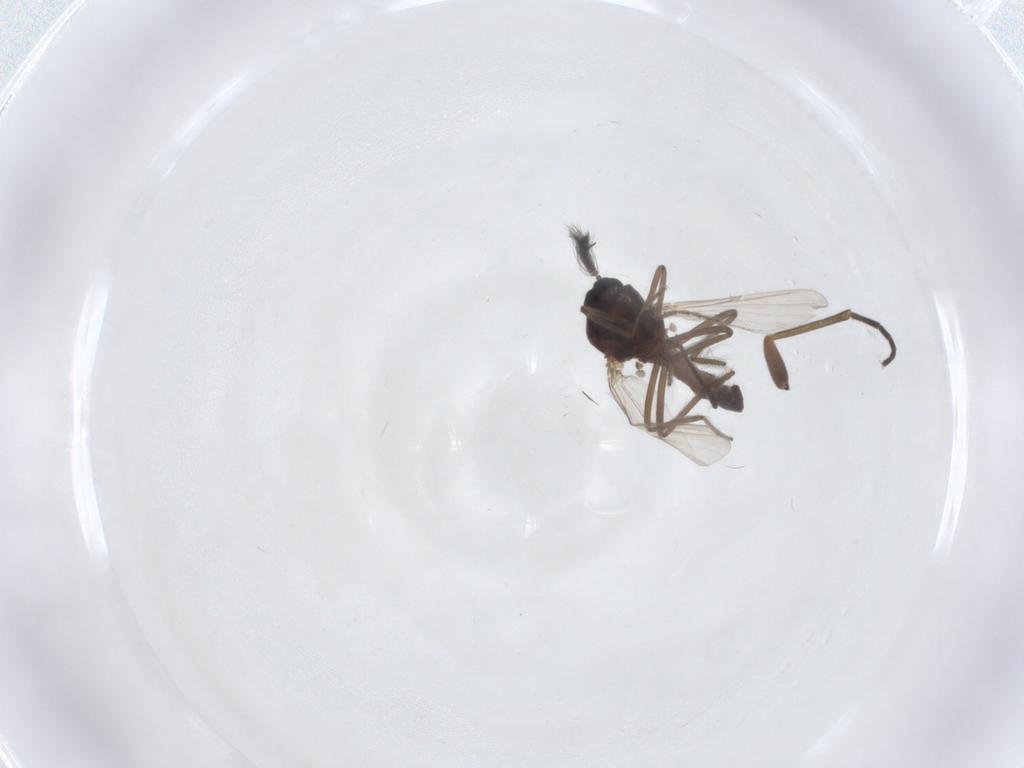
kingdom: Animalia
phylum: Arthropoda
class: Insecta
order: Diptera
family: Ceratopogonidae
